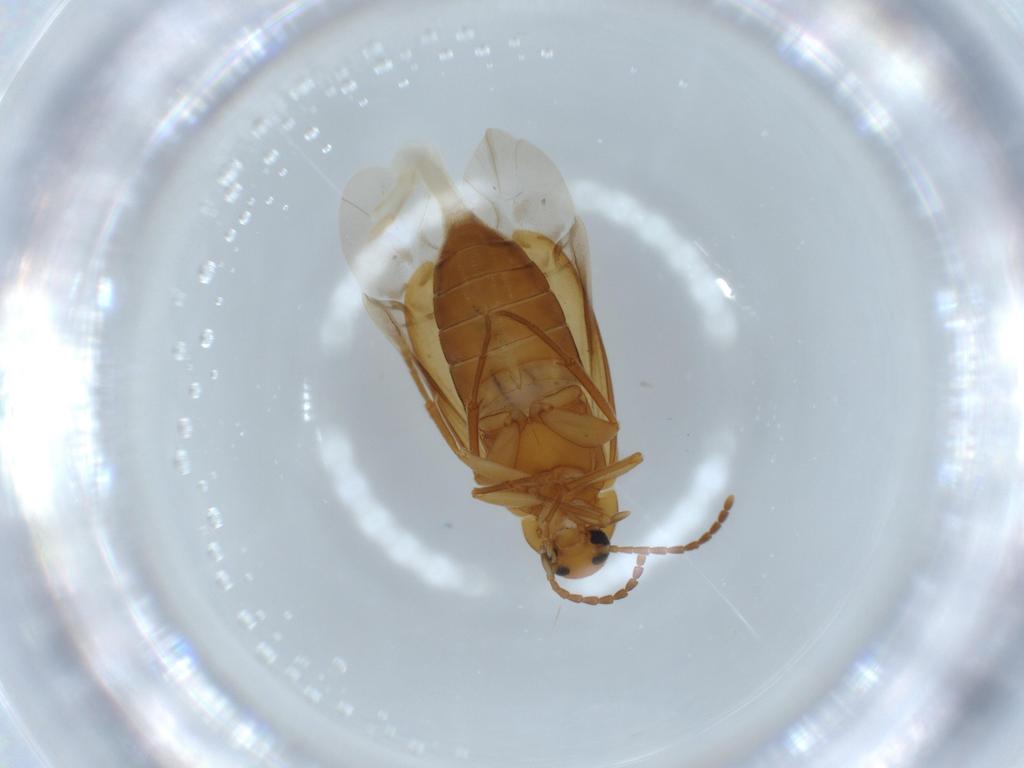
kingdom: Animalia
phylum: Arthropoda
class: Insecta
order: Coleoptera
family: Scraptiidae
